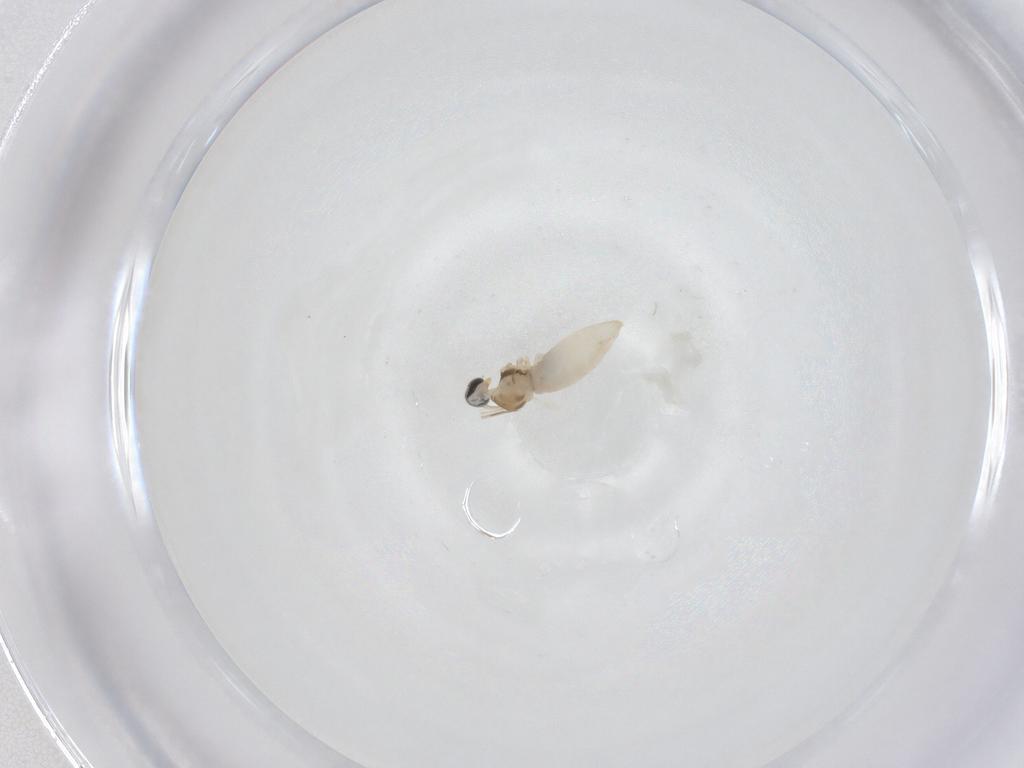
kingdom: Animalia
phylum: Arthropoda
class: Insecta
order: Diptera
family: Cecidomyiidae
